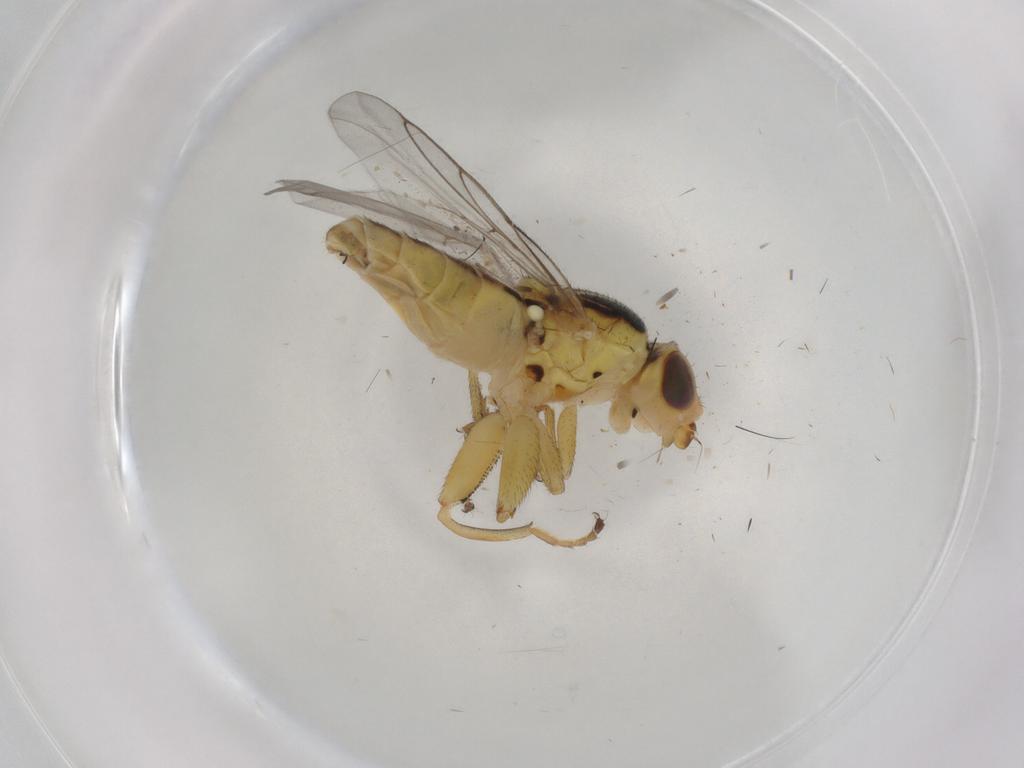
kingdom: Animalia
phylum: Arthropoda
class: Insecta
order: Diptera
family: Chloropidae
